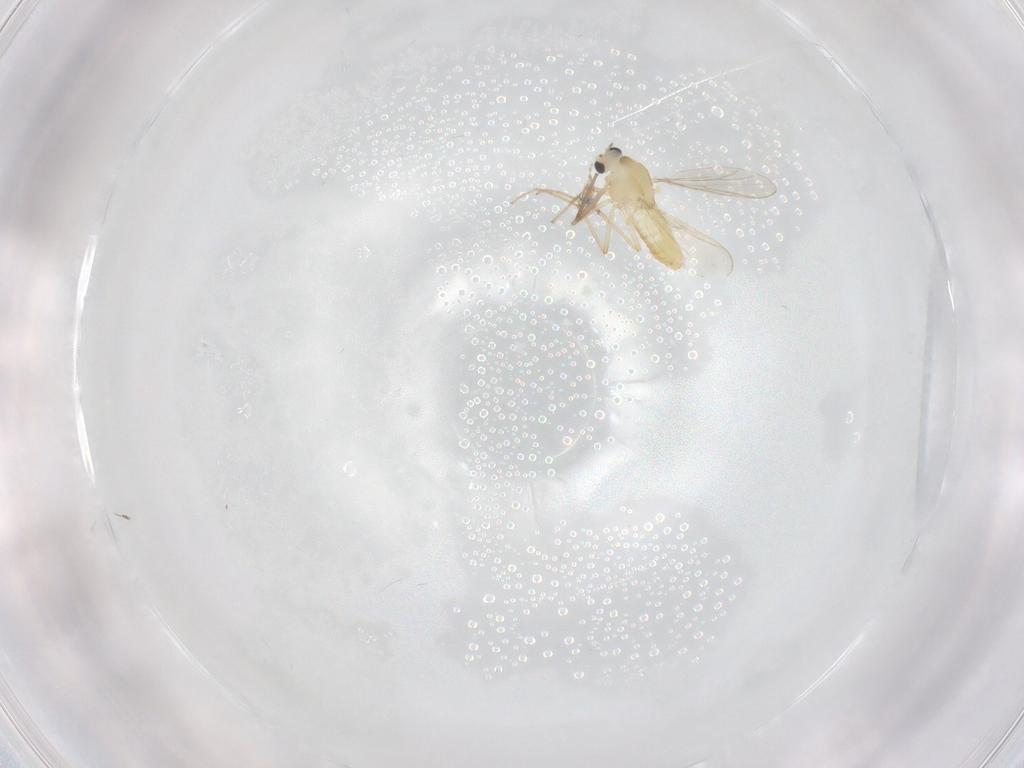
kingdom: Animalia
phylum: Arthropoda
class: Insecta
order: Diptera
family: Chironomidae
